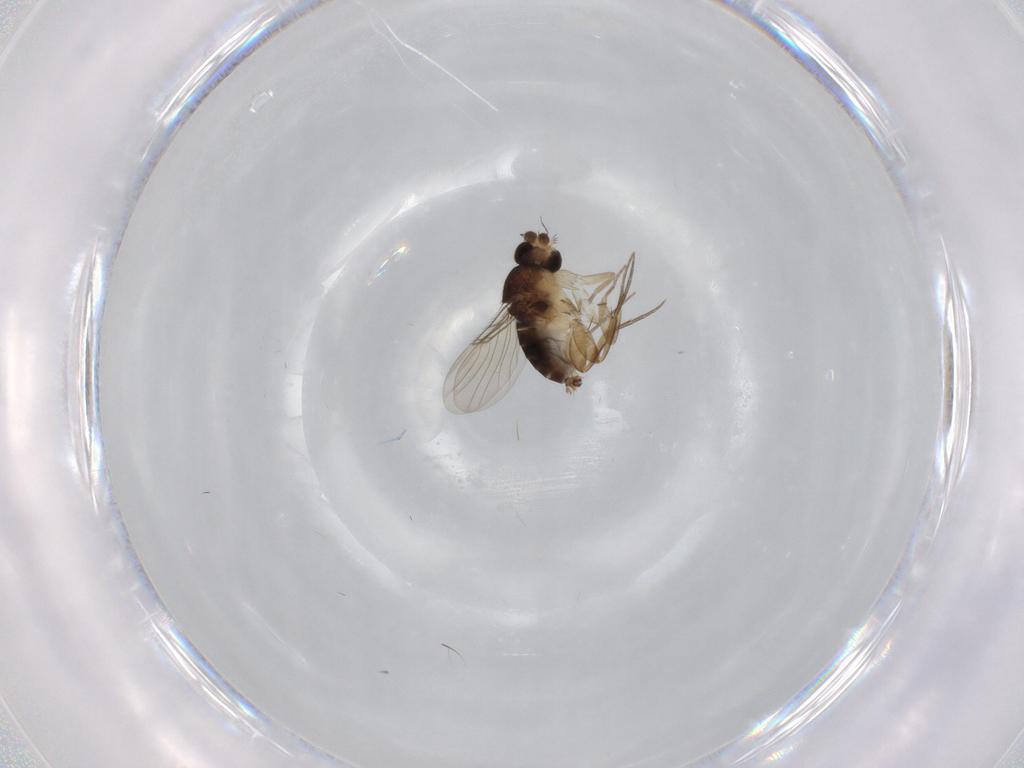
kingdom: Animalia
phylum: Arthropoda
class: Insecta
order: Diptera
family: Phoridae
